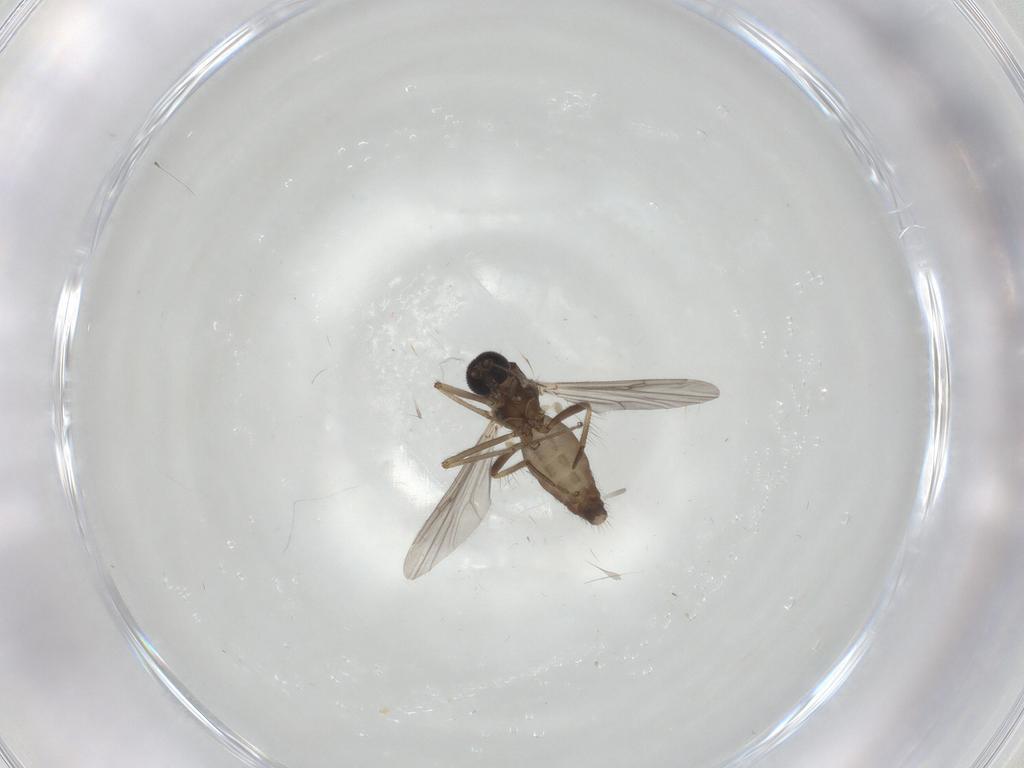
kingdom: Animalia
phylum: Arthropoda
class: Insecta
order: Diptera
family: Ceratopogonidae
